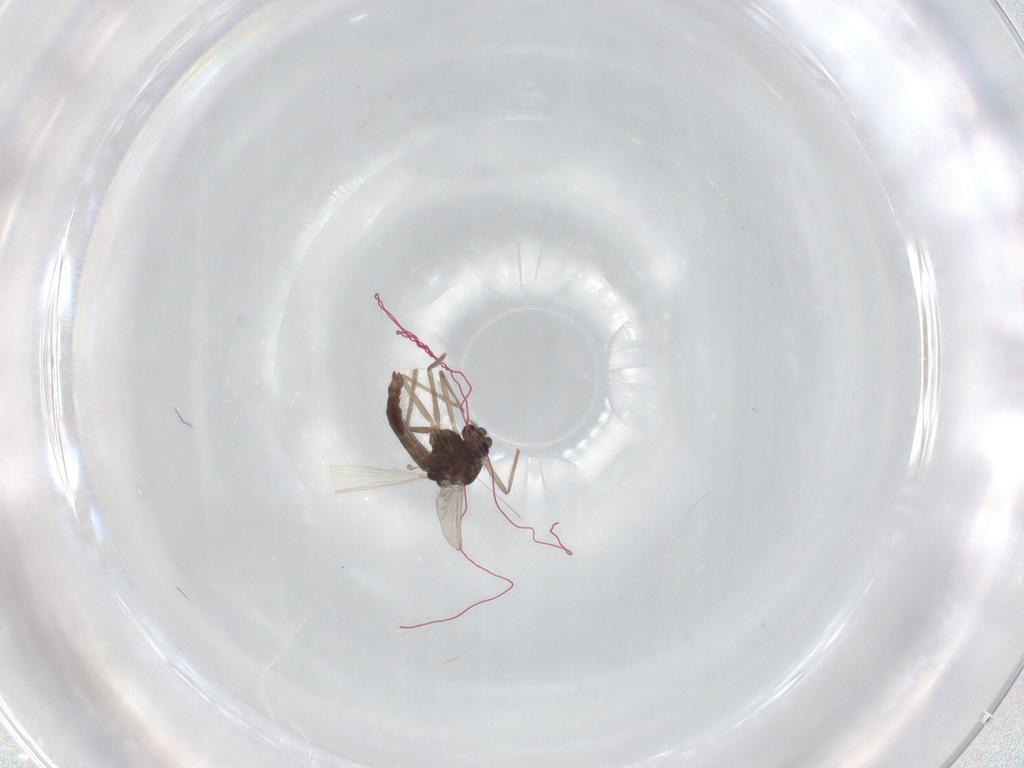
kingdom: Animalia
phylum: Arthropoda
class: Insecta
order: Diptera
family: Chironomidae
